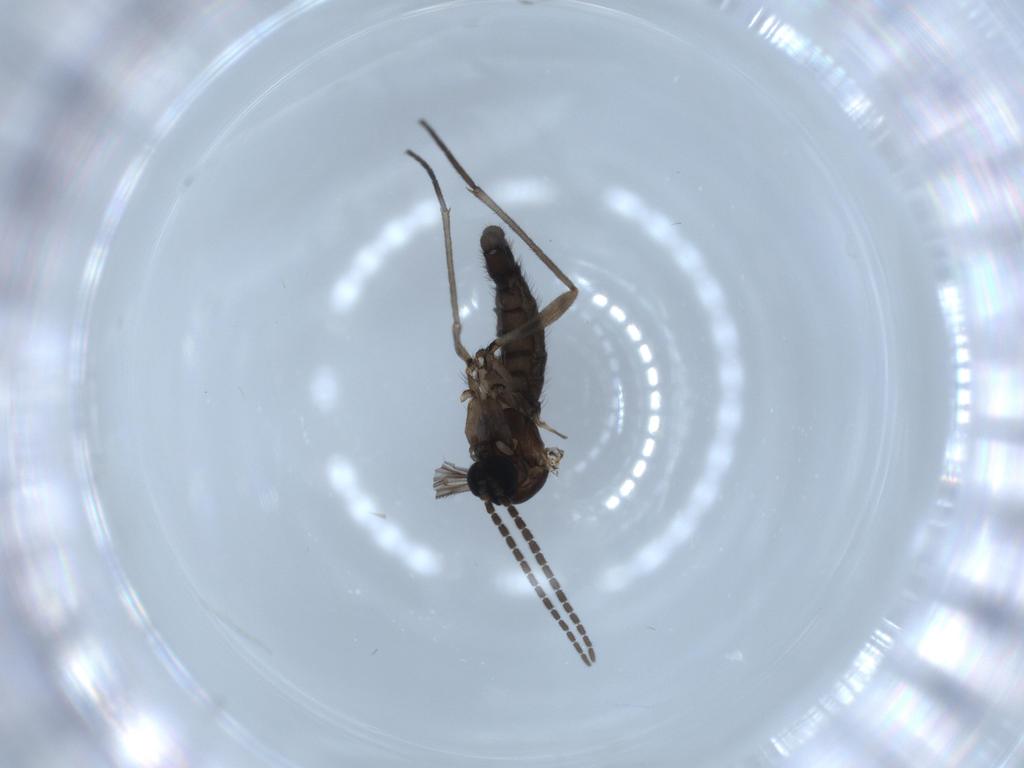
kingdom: Animalia
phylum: Arthropoda
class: Insecta
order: Diptera
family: Sciaridae
